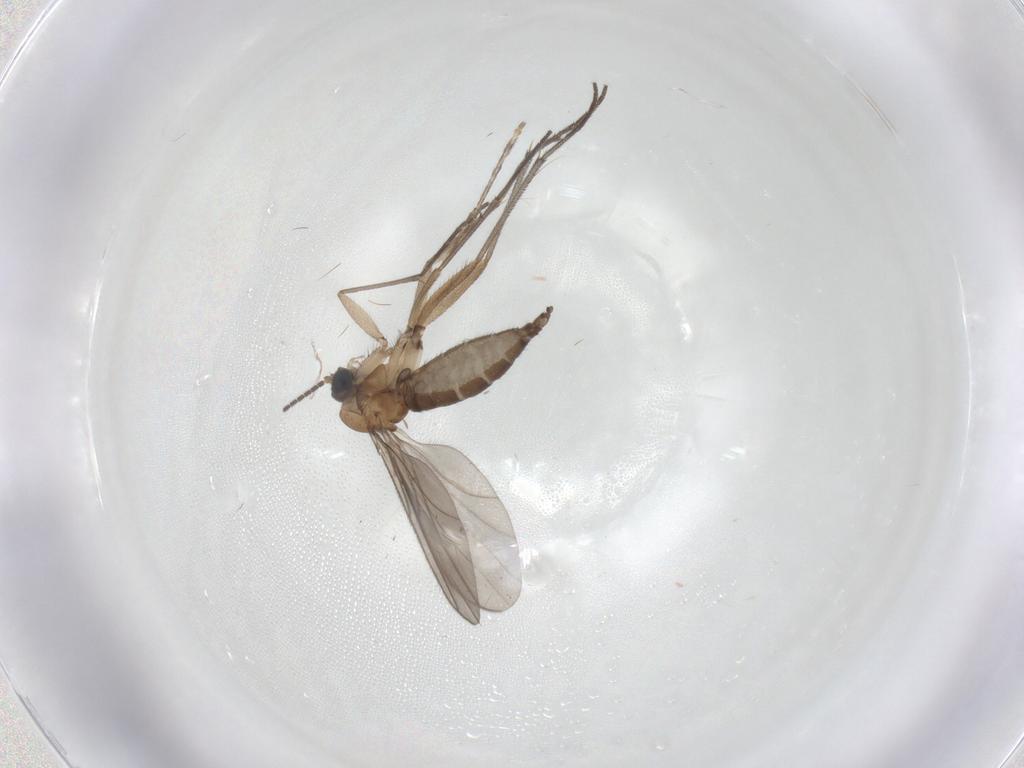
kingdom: Animalia
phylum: Arthropoda
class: Insecta
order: Diptera
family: Sciaridae
